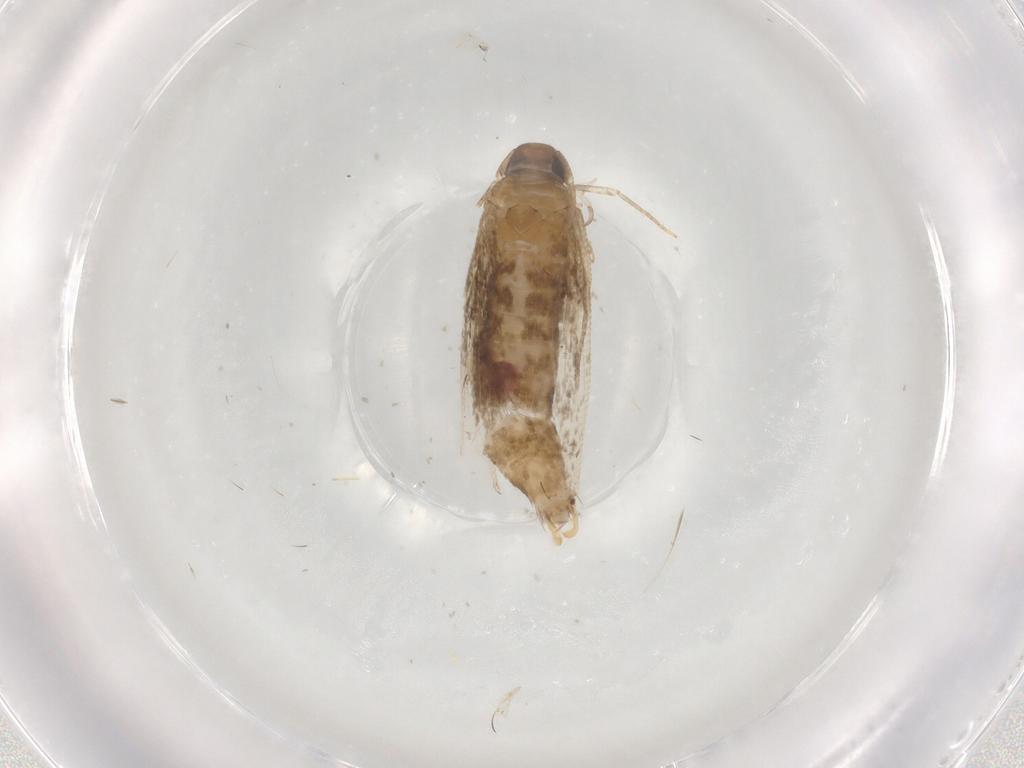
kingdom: Animalia
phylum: Arthropoda
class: Insecta
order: Lepidoptera
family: Cosmopterigidae
